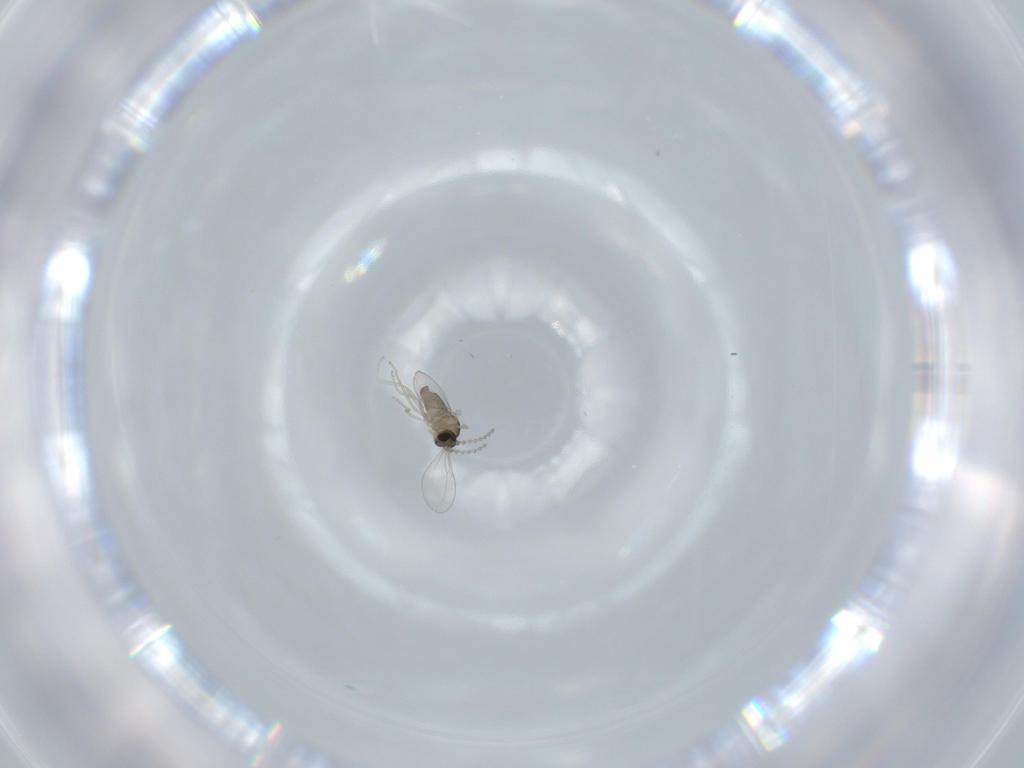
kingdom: Animalia
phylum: Arthropoda
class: Insecta
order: Diptera
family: Cecidomyiidae
